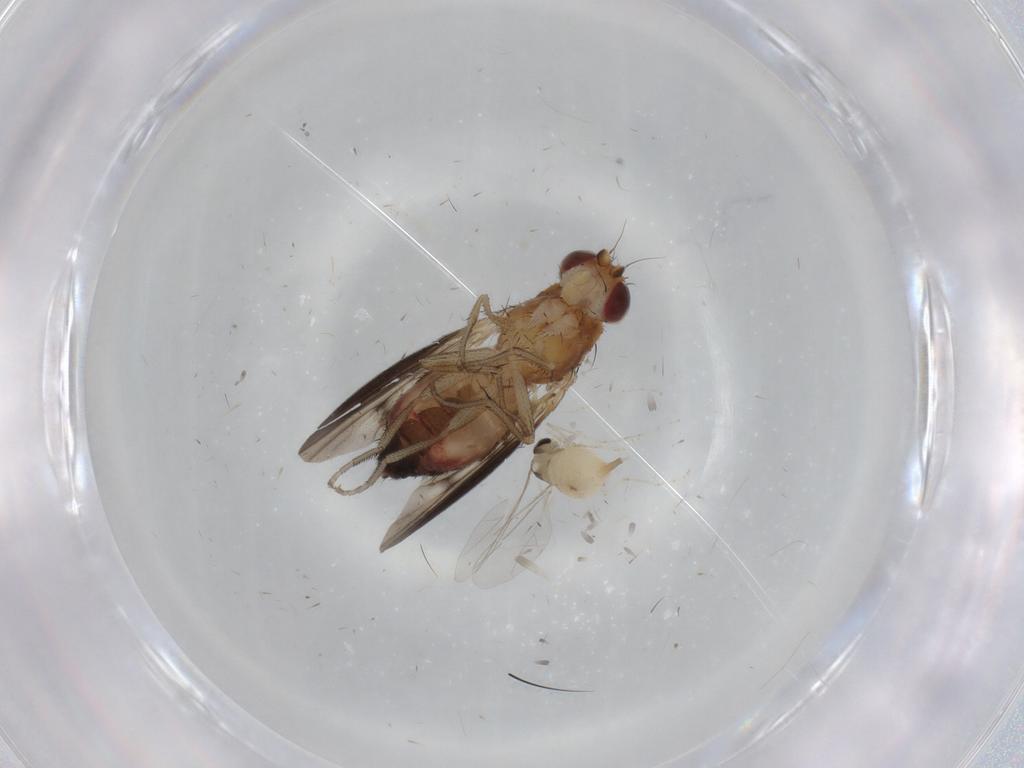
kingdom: Animalia
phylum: Arthropoda
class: Insecta
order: Diptera
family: Heleomyzidae
